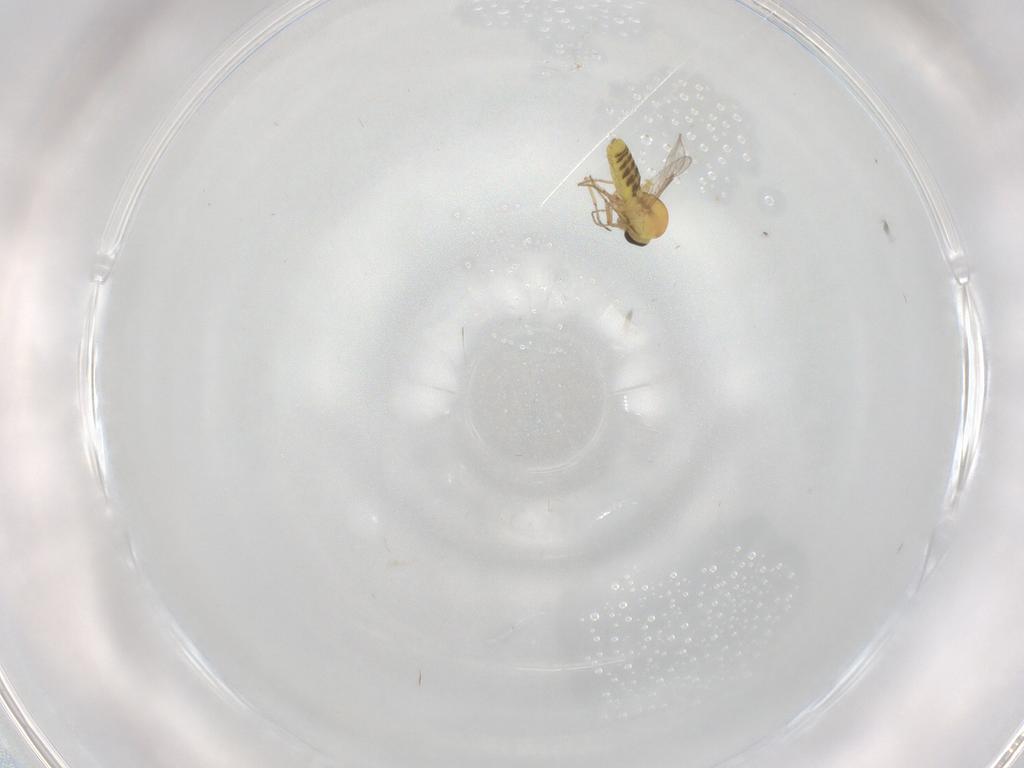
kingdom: Animalia
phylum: Arthropoda
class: Insecta
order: Diptera
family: Ceratopogonidae
